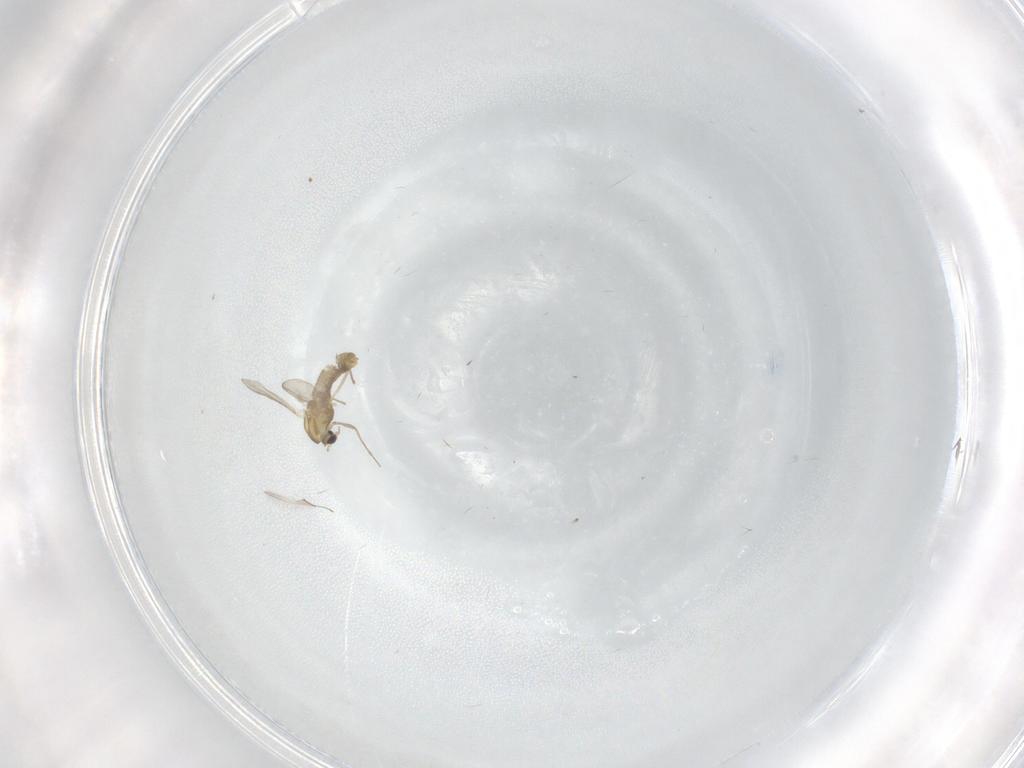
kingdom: Animalia
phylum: Arthropoda
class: Insecta
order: Diptera
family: Chironomidae
